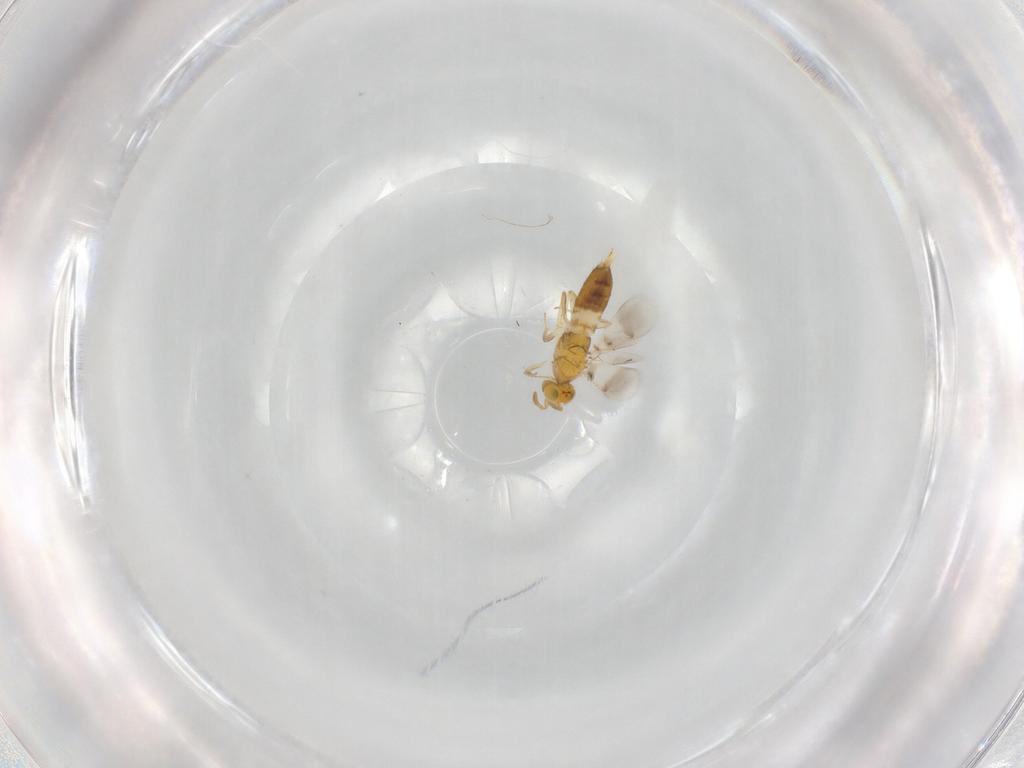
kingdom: Animalia
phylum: Arthropoda
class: Insecta
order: Hymenoptera
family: Aphelinidae
